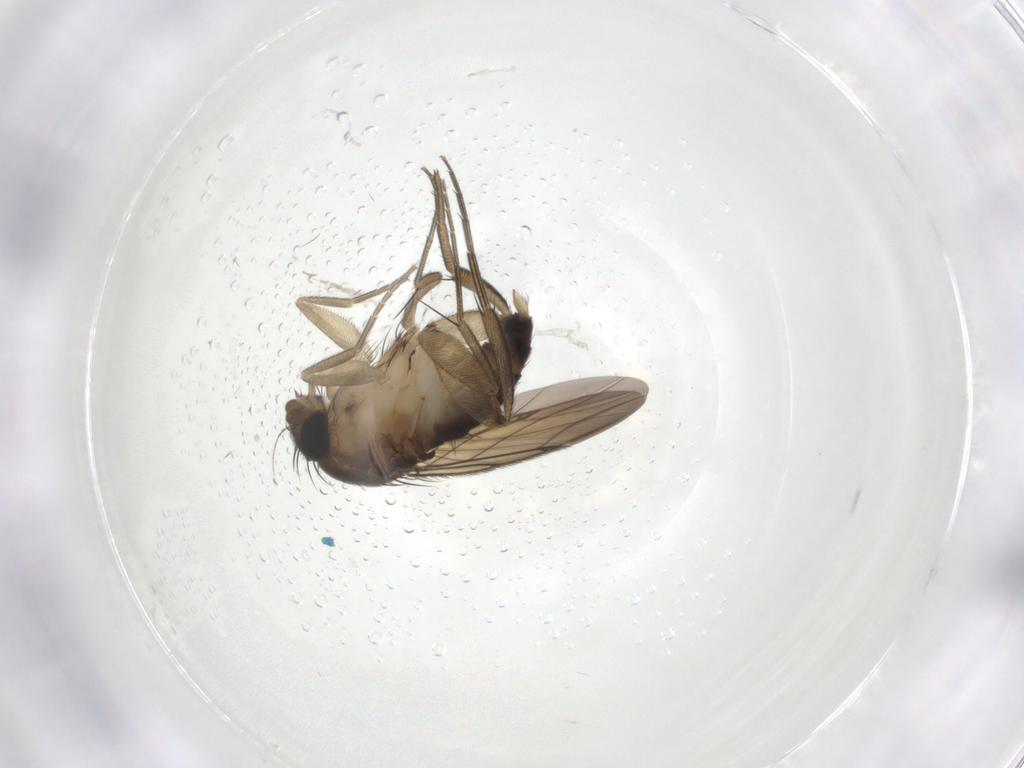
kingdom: Animalia
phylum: Arthropoda
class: Insecta
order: Diptera
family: Phoridae
